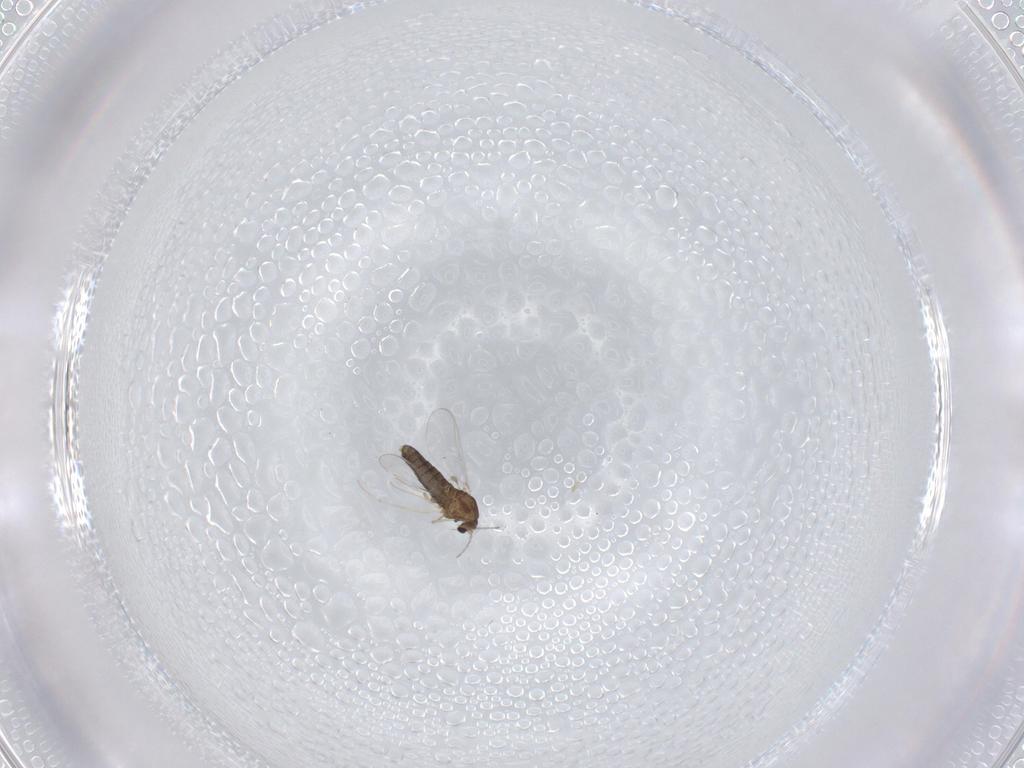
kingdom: Animalia
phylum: Arthropoda
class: Insecta
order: Diptera
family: Chironomidae
